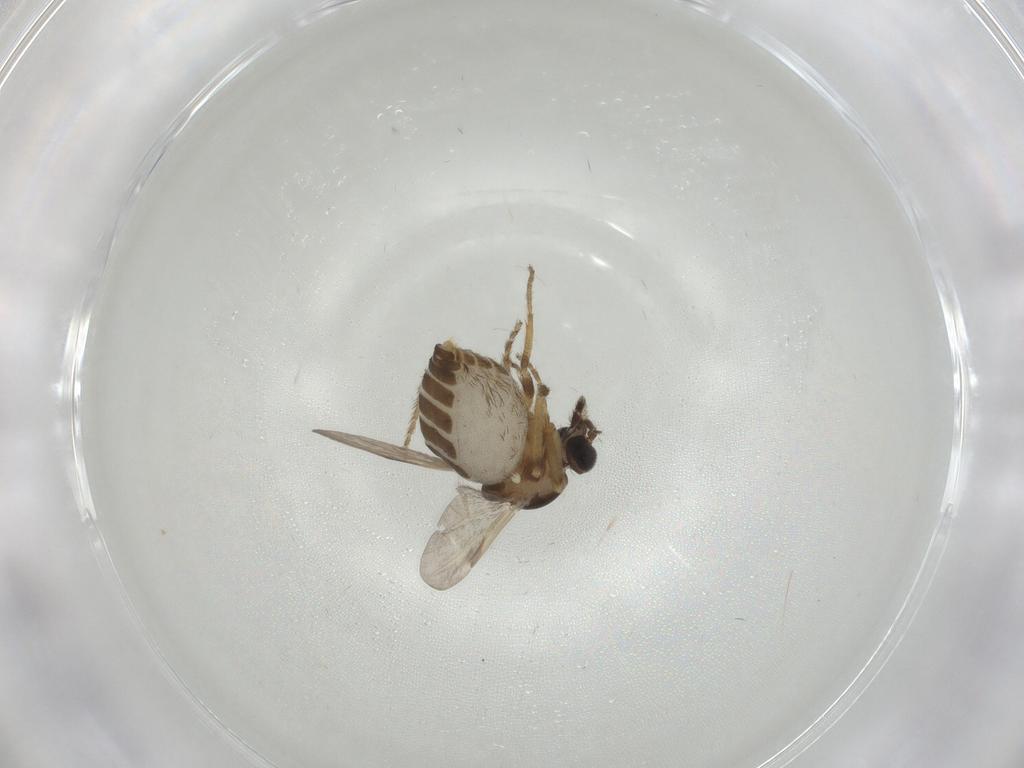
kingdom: Animalia
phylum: Arthropoda
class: Insecta
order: Diptera
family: Ceratopogonidae
